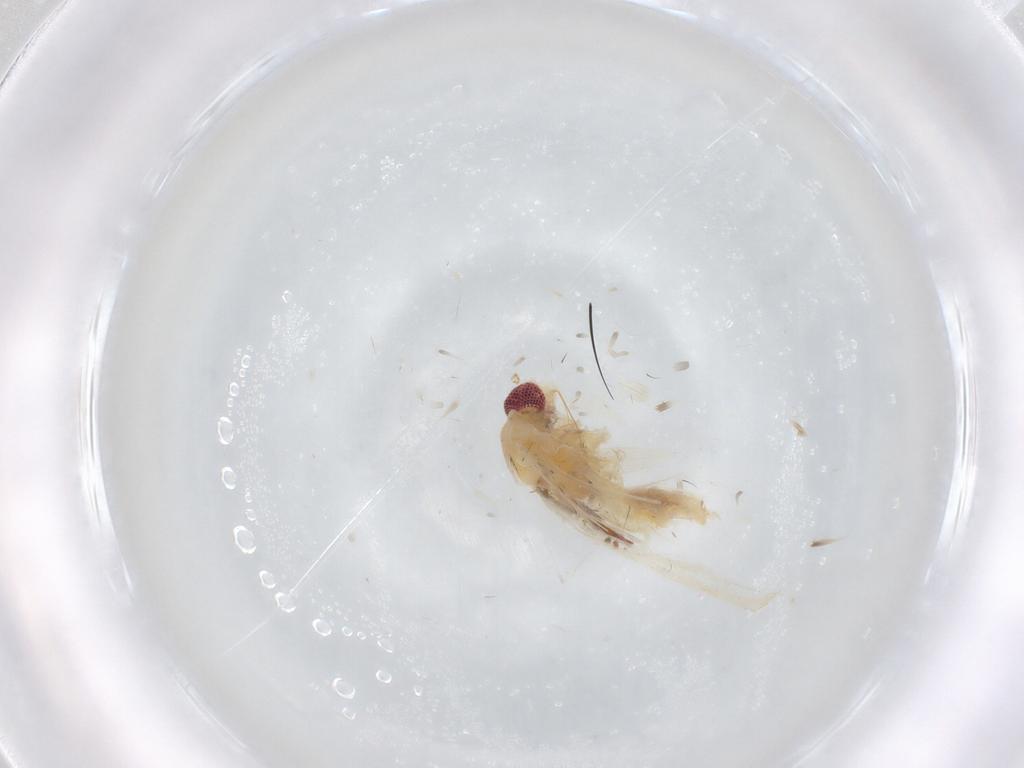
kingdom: Animalia
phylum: Arthropoda
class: Insecta
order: Lepidoptera
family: Gelechiidae
